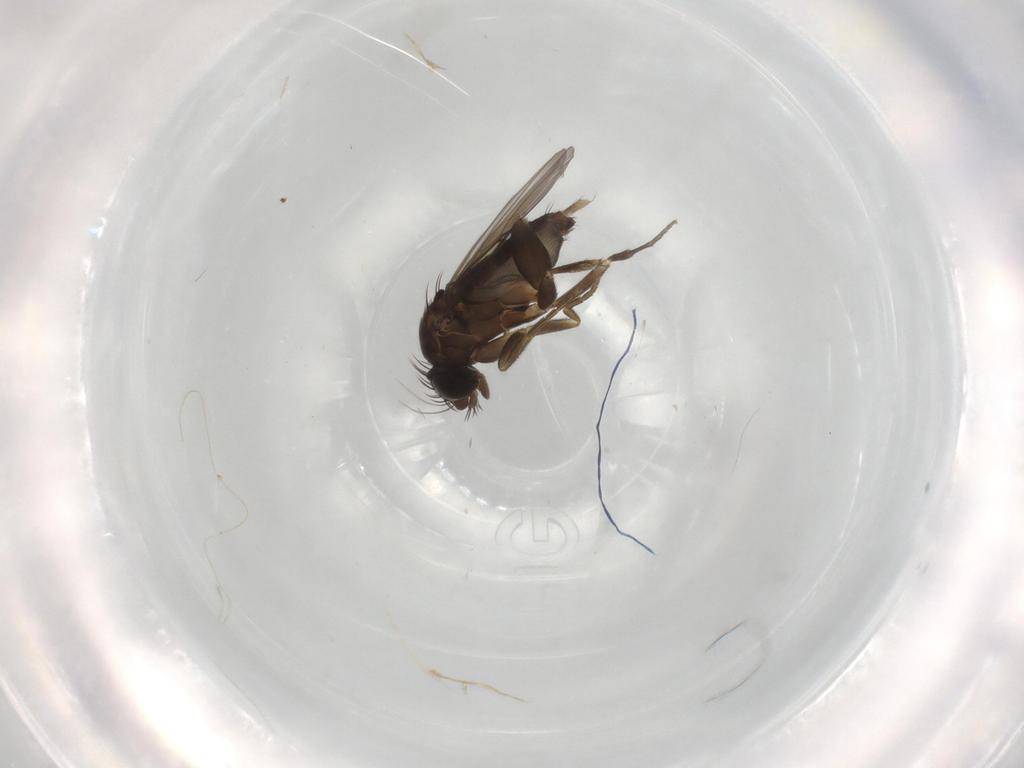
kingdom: Animalia
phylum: Arthropoda
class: Insecta
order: Diptera
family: Phoridae
